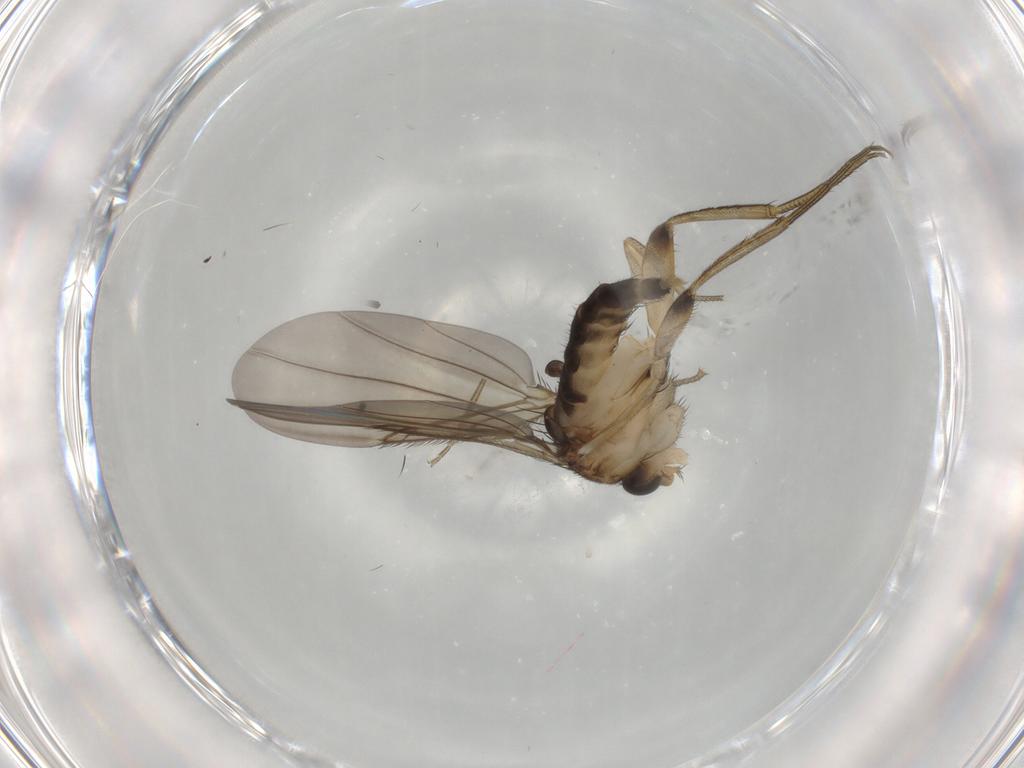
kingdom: Animalia
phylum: Arthropoda
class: Insecta
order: Diptera
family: Phoridae
